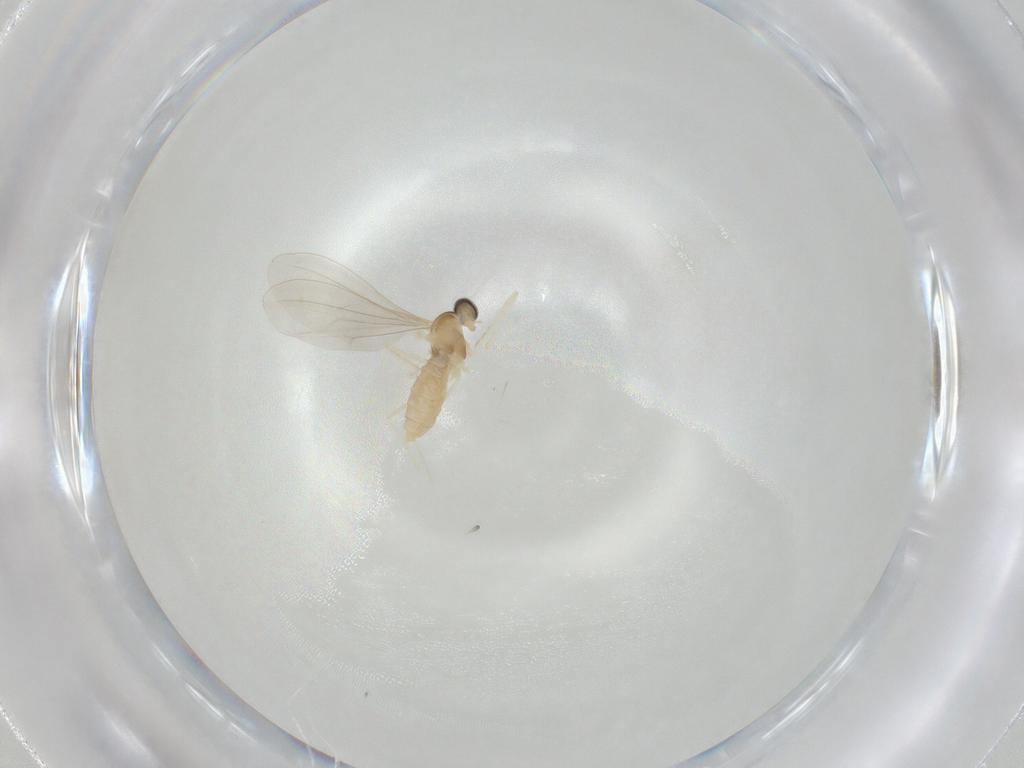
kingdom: Animalia
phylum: Arthropoda
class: Insecta
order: Diptera
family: Cecidomyiidae
